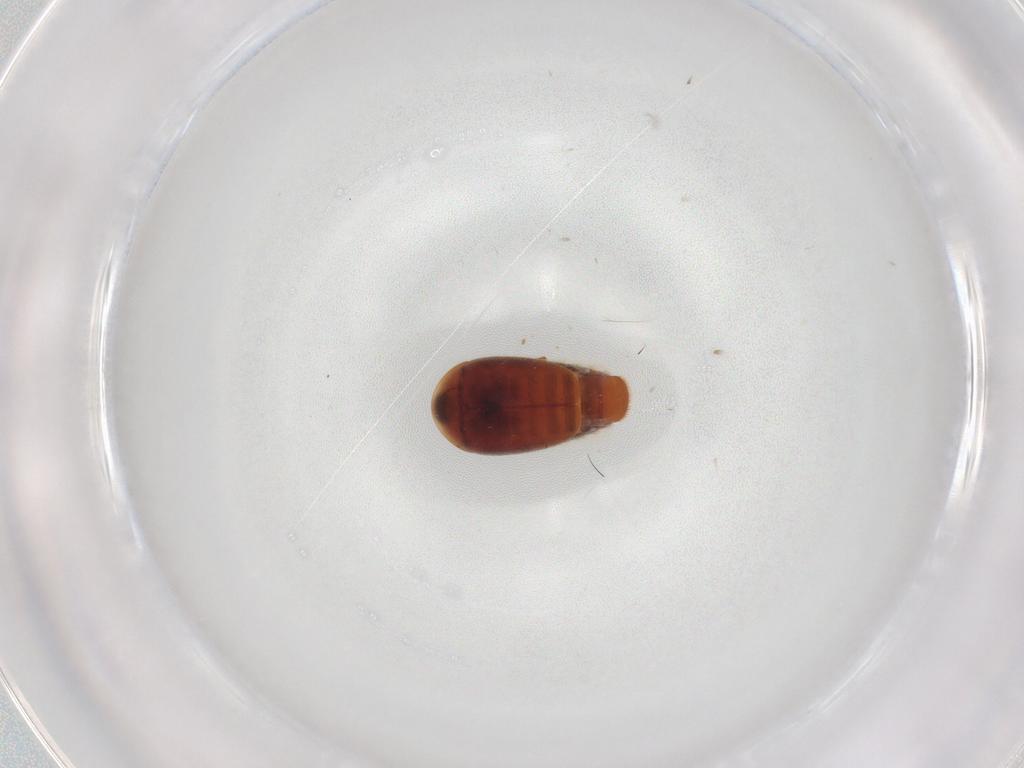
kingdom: Animalia
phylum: Arthropoda
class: Insecta
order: Coleoptera
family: Corylophidae
